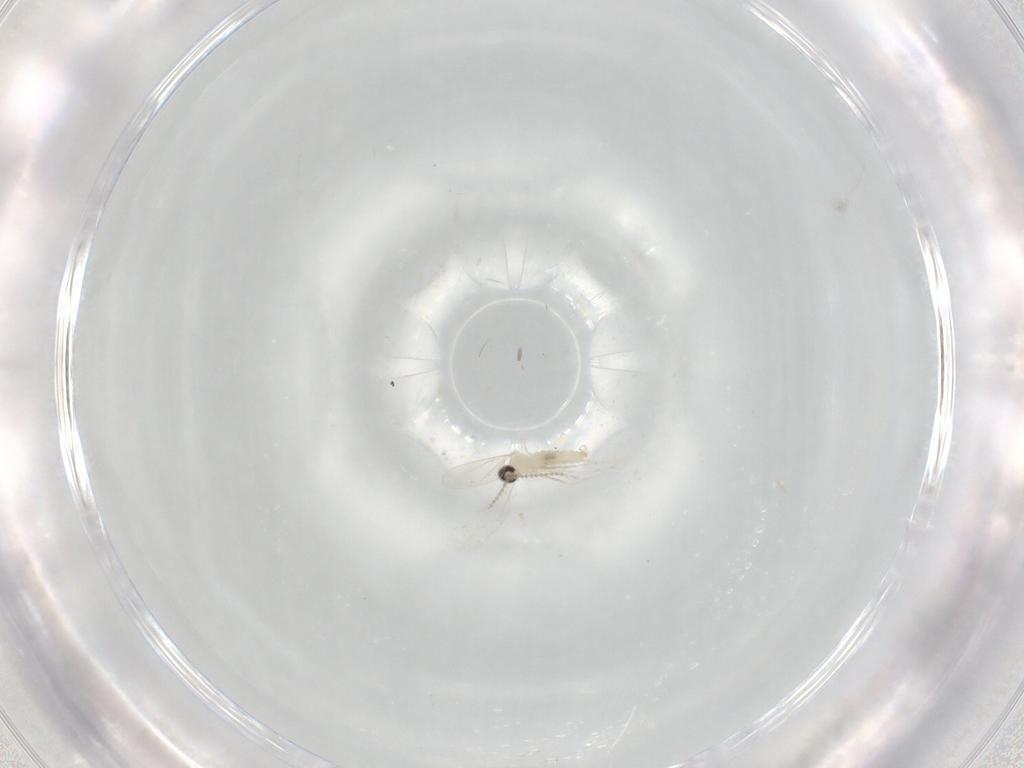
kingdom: Animalia
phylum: Arthropoda
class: Insecta
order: Diptera
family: Cecidomyiidae
